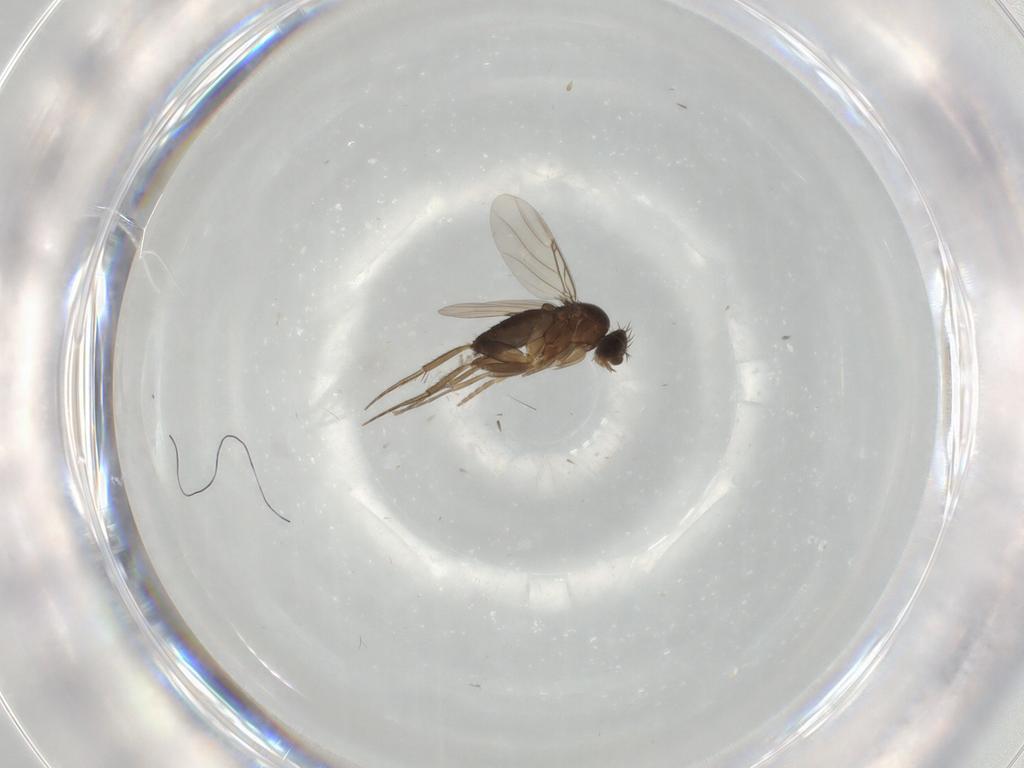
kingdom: Animalia
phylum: Arthropoda
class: Insecta
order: Diptera
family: Phoridae
